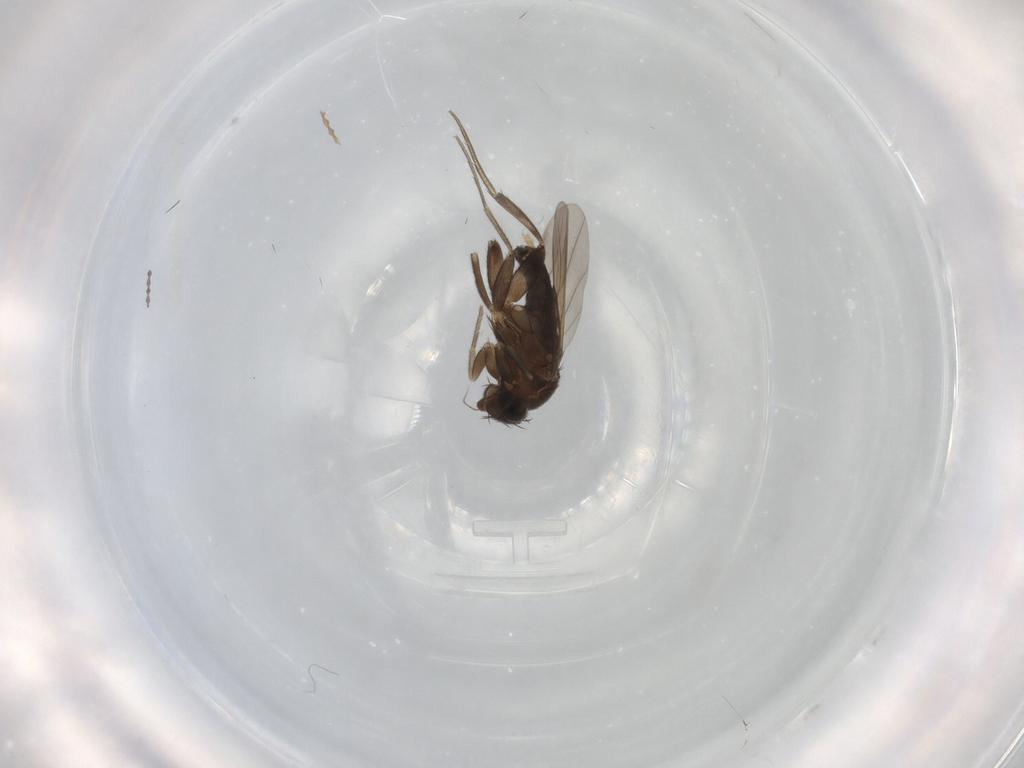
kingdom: Animalia
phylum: Arthropoda
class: Insecta
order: Diptera
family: Phoridae
